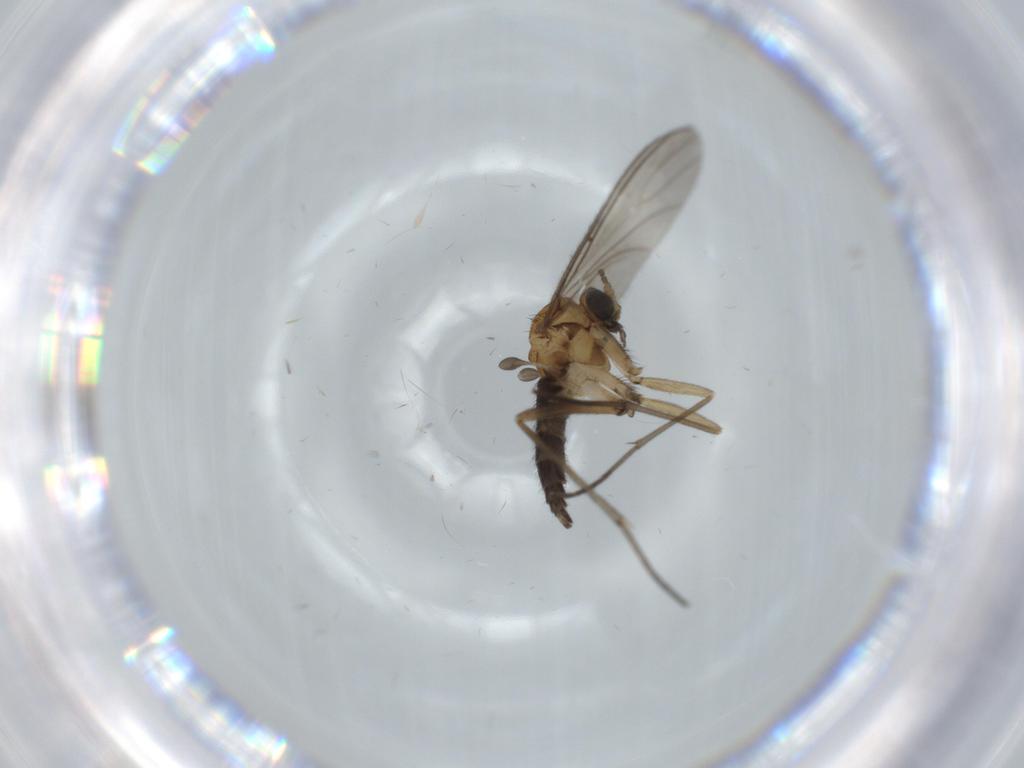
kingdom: Animalia
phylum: Arthropoda
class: Insecta
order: Diptera
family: Sciaridae
